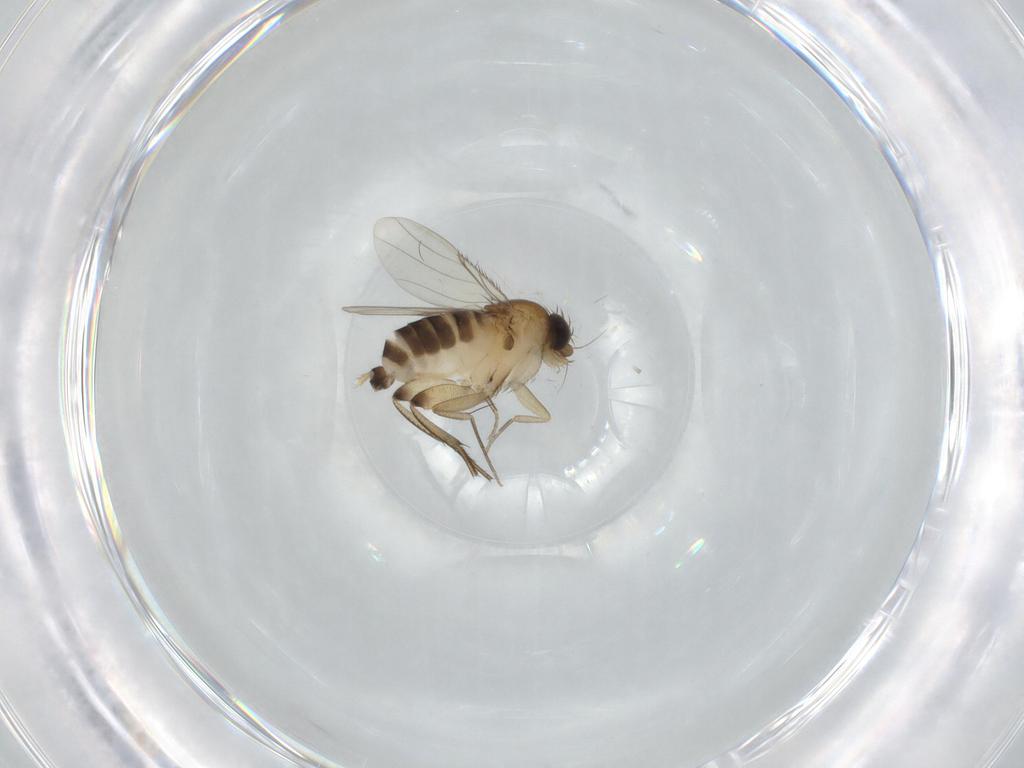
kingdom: Animalia
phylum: Arthropoda
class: Insecta
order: Diptera
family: Phoridae
